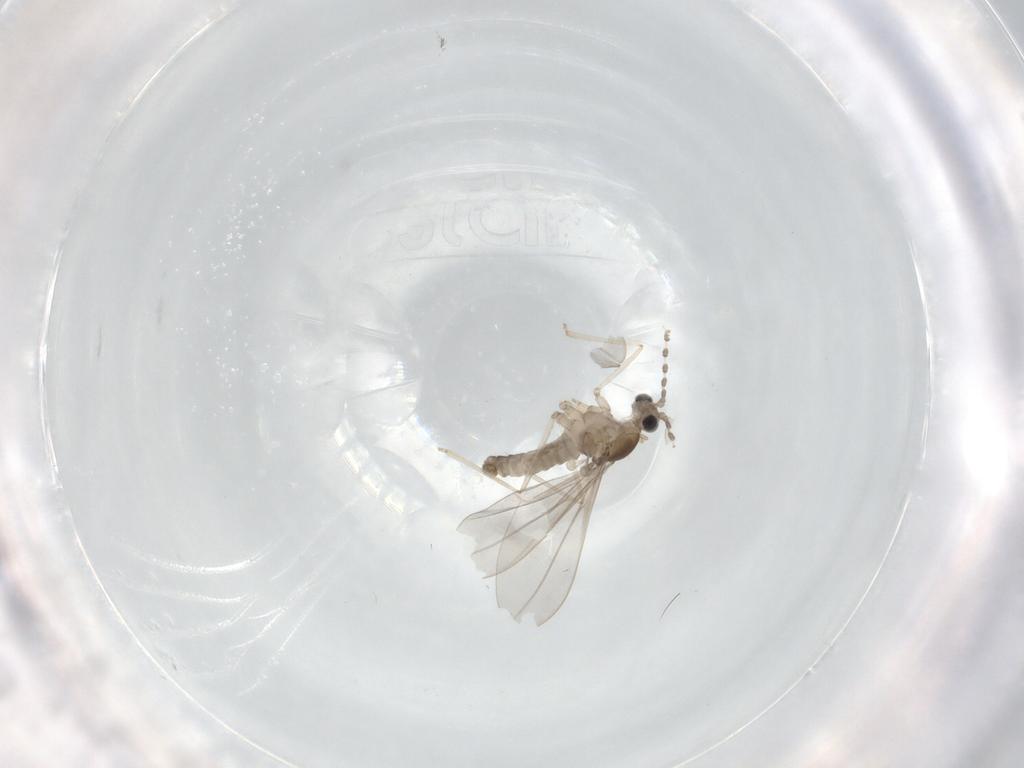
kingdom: Animalia
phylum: Arthropoda
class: Insecta
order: Diptera
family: Cecidomyiidae
